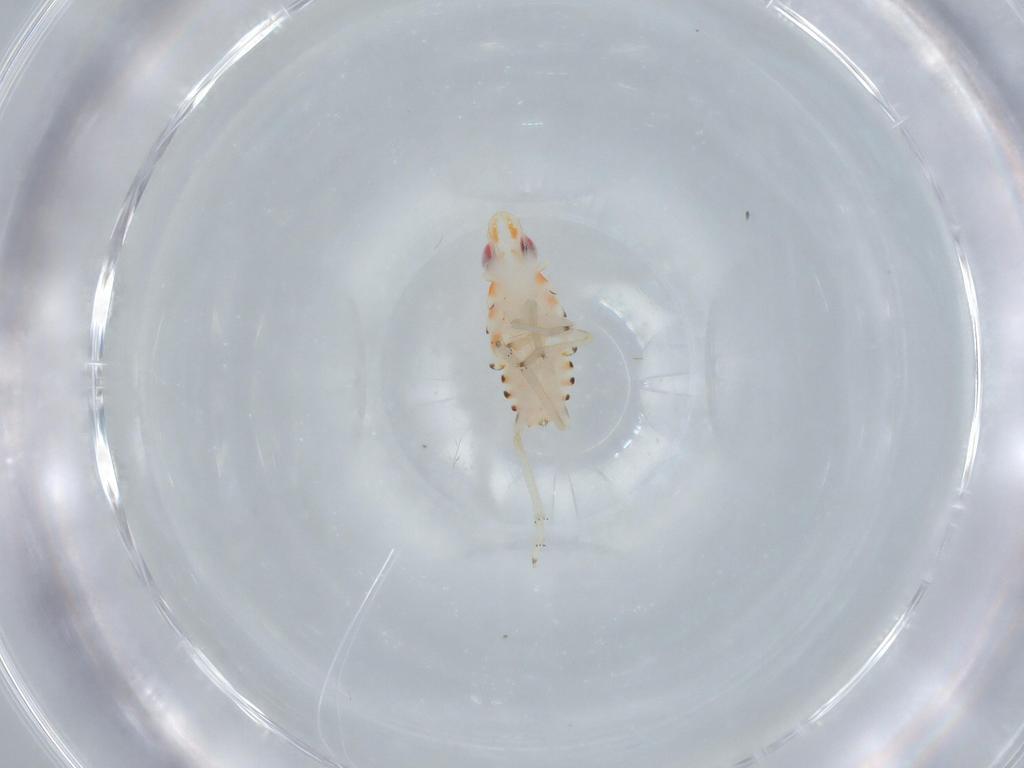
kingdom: Animalia
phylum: Arthropoda
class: Insecta
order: Hemiptera
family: Tropiduchidae
